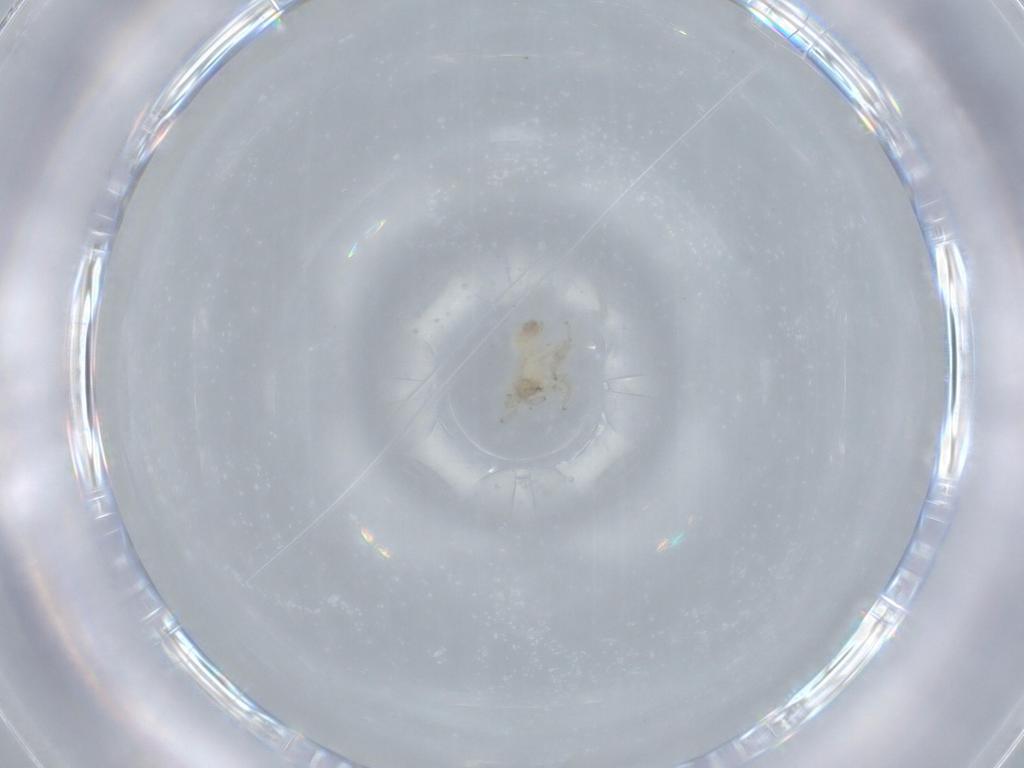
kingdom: Animalia
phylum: Arthropoda
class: Arachnida
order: Araneae
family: Oonopidae
